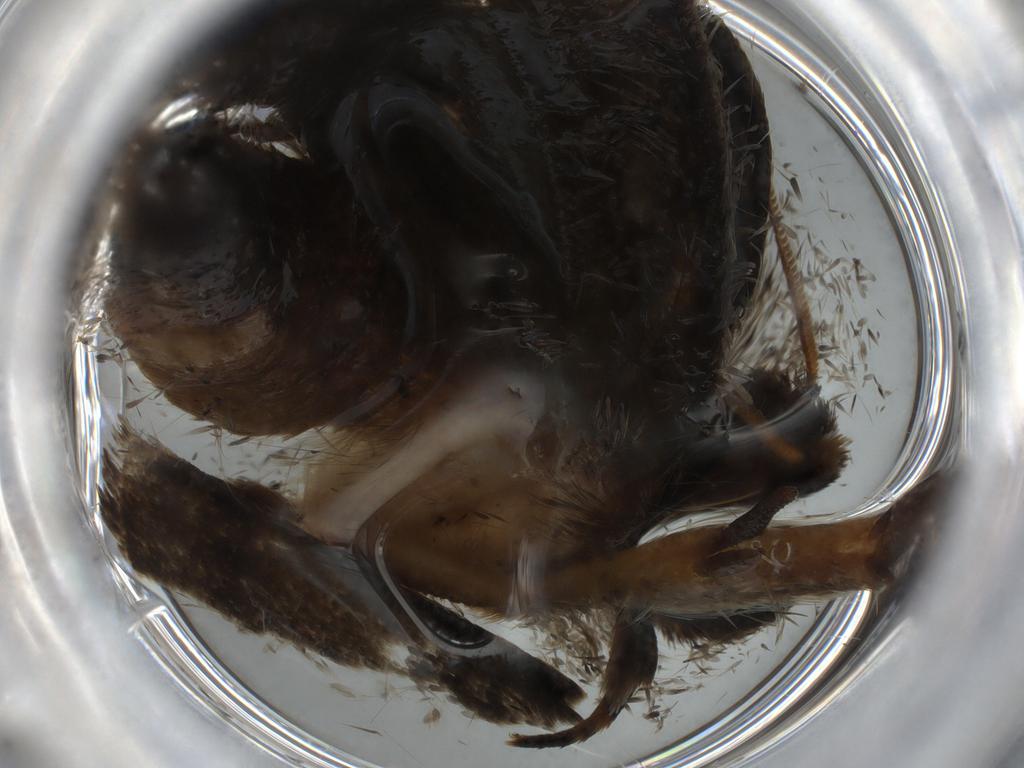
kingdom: Animalia
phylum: Arthropoda
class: Insecta
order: Lepidoptera
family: Tineidae
